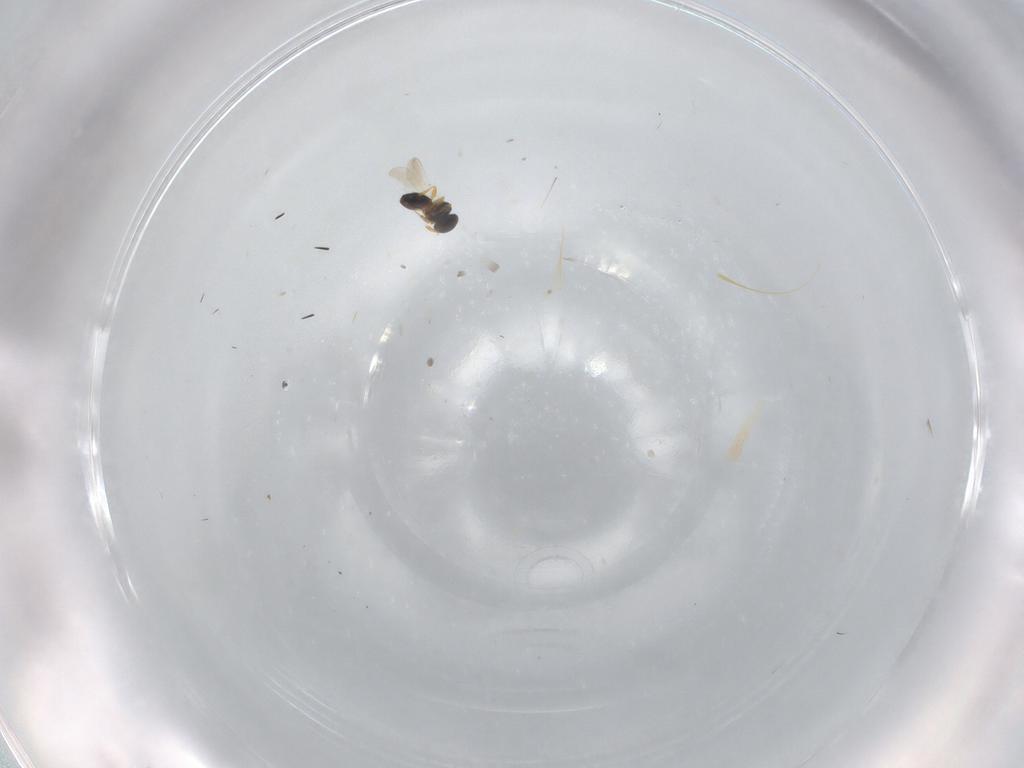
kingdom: Animalia
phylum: Arthropoda
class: Insecta
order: Hymenoptera
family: Platygastridae
